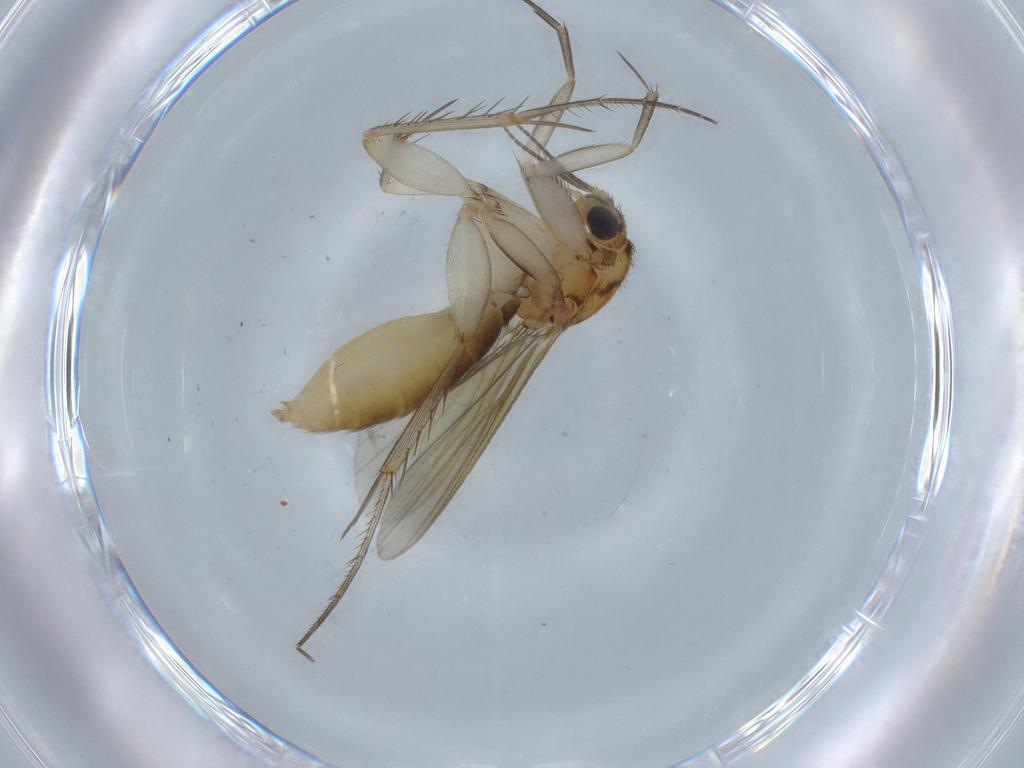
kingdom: Animalia
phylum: Arthropoda
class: Insecta
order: Diptera
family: Mycetophilidae
